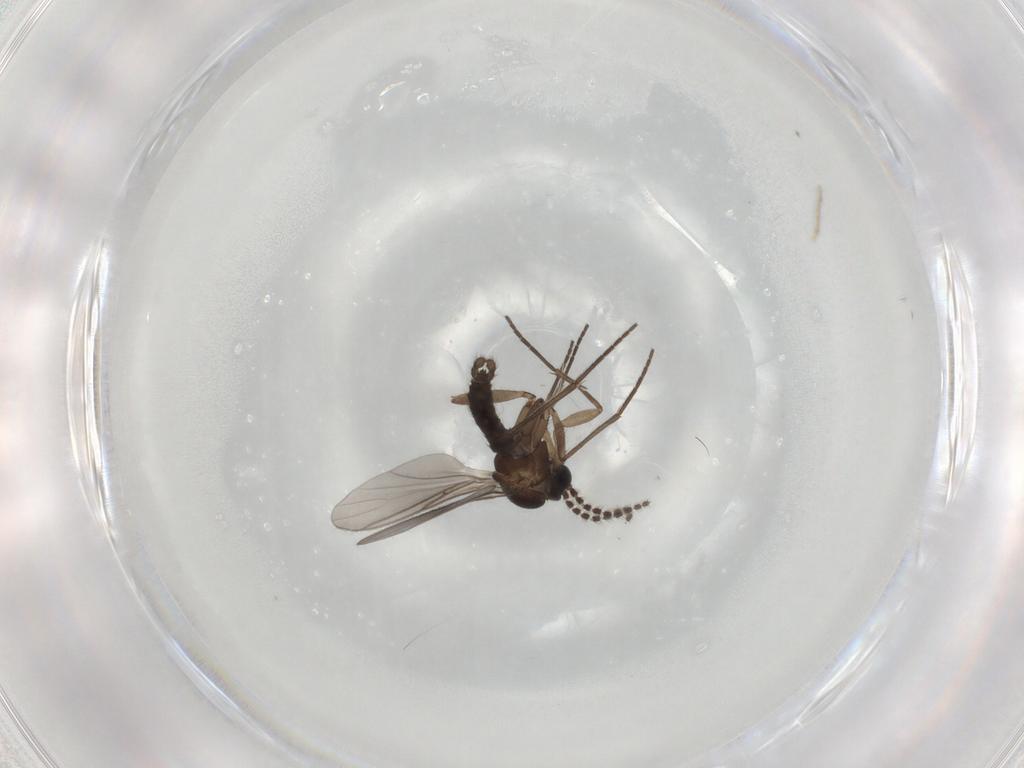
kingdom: Animalia
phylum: Arthropoda
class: Insecta
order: Diptera
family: Sciaridae
